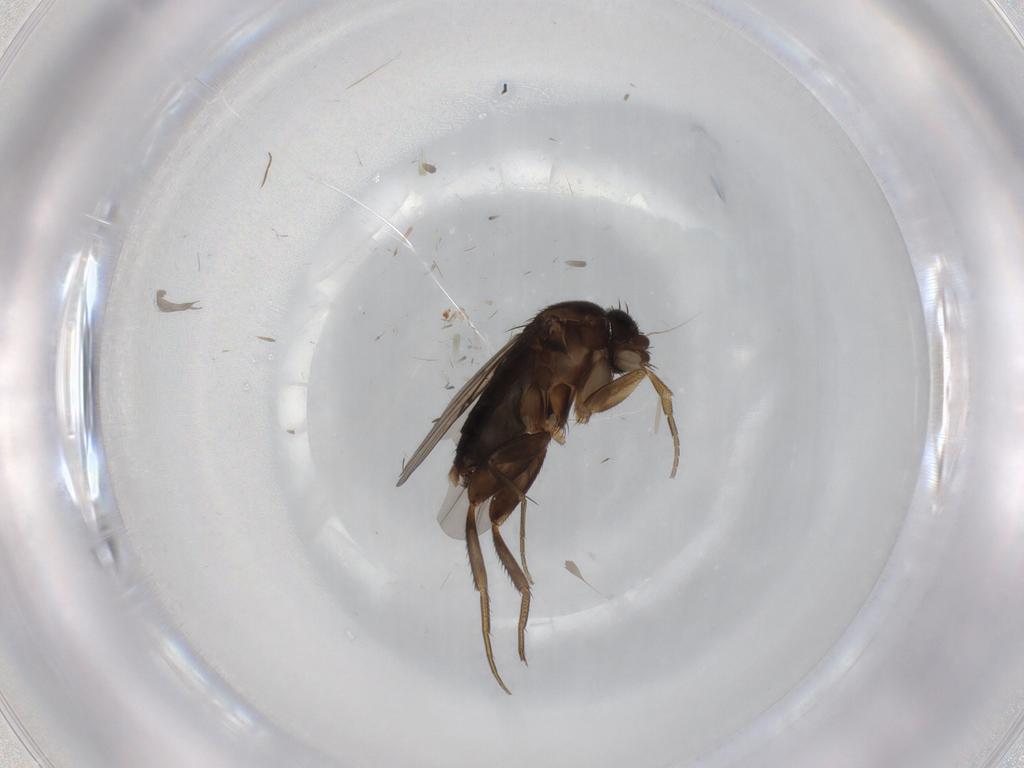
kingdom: Animalia
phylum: Arthropoda
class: Insecta
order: Diptera
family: Phoridae
